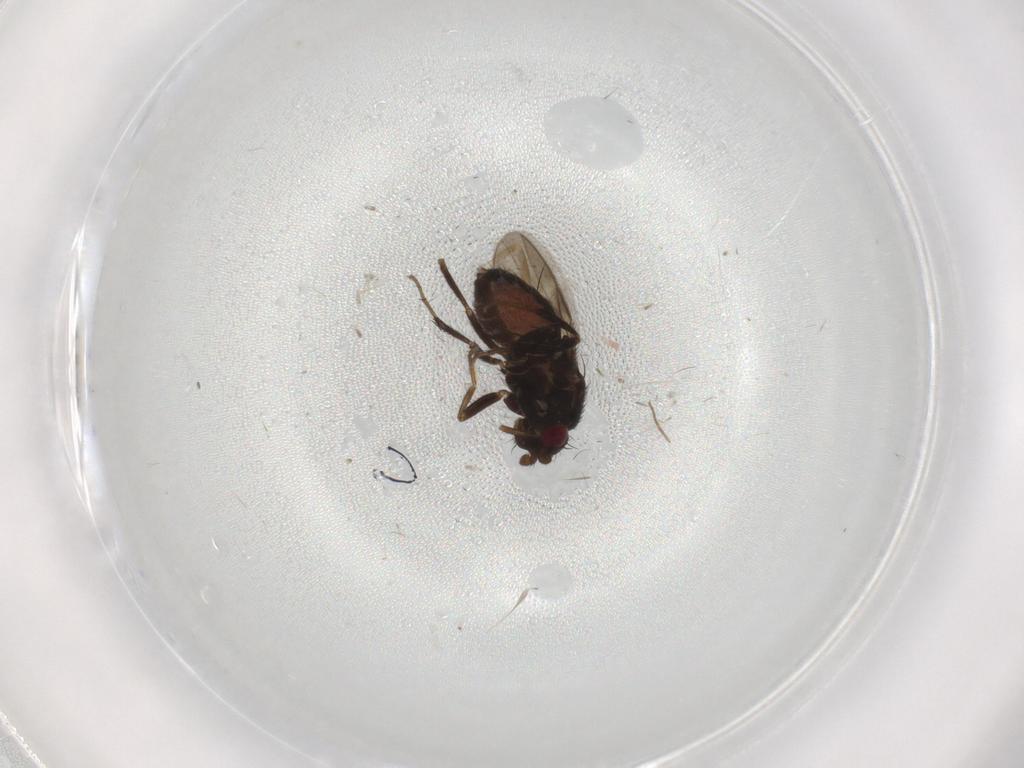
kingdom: Animalia
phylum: Arthropoda
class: Insecta
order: Diptera
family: Sphaeroceridae
